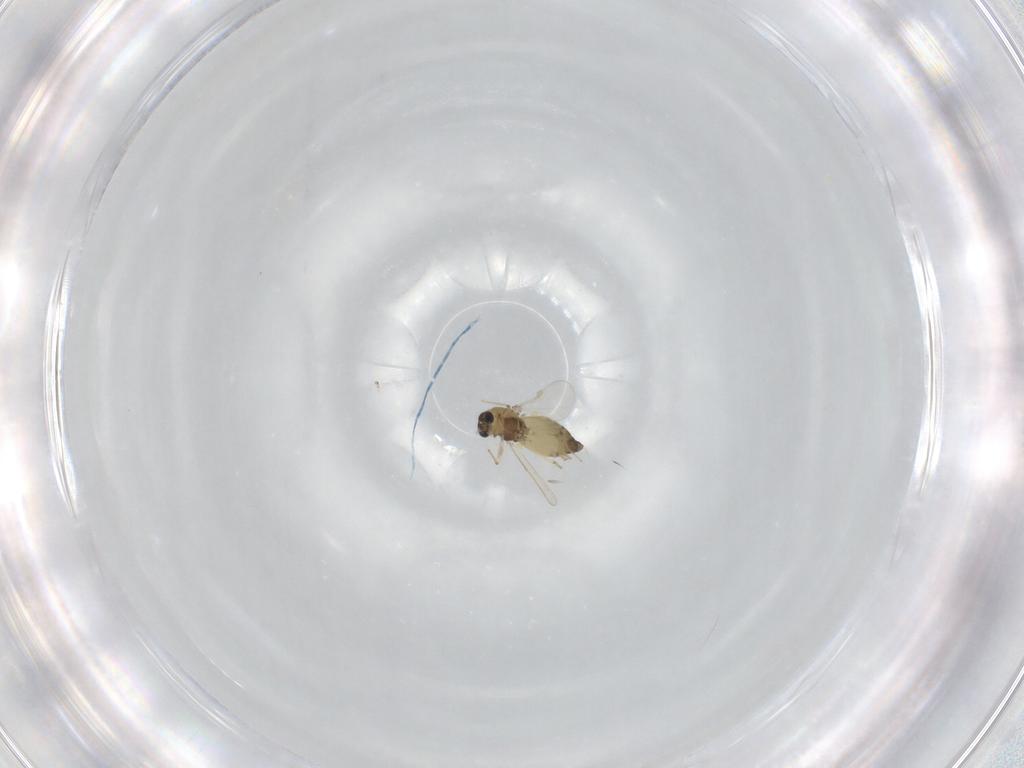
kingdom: Animalia
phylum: Arthropoda
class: Insecta
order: Diptera
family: Chironomidae
